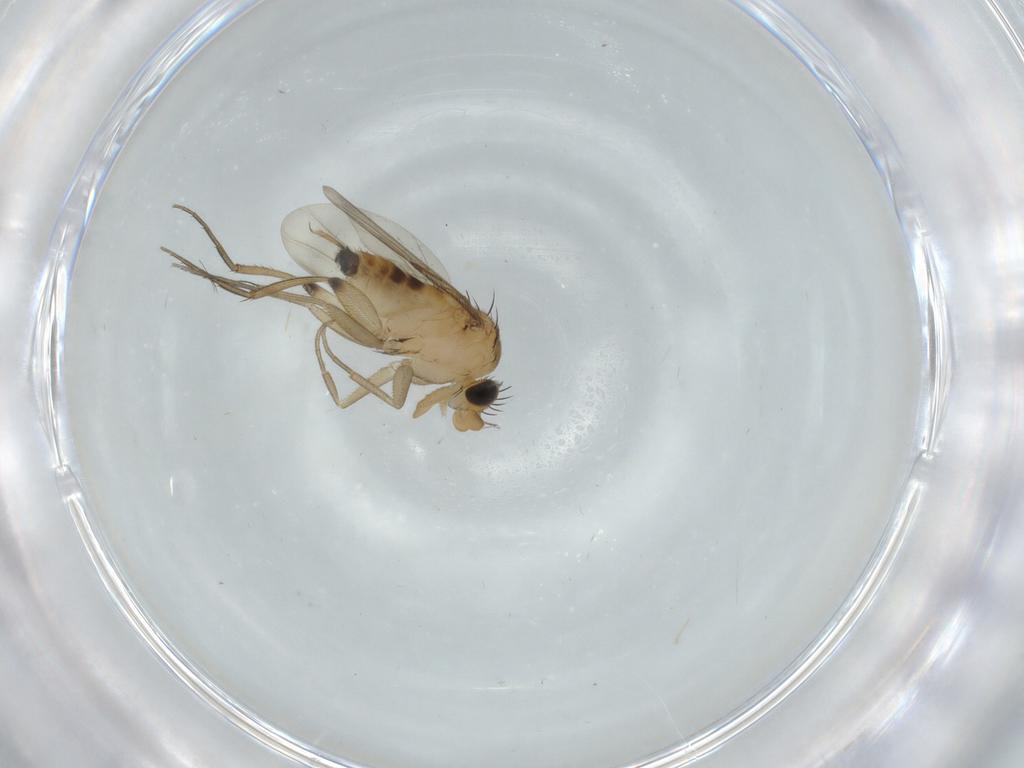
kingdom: Animalia
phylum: Arthropoda
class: Insecta
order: Diptera
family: Phoridae
